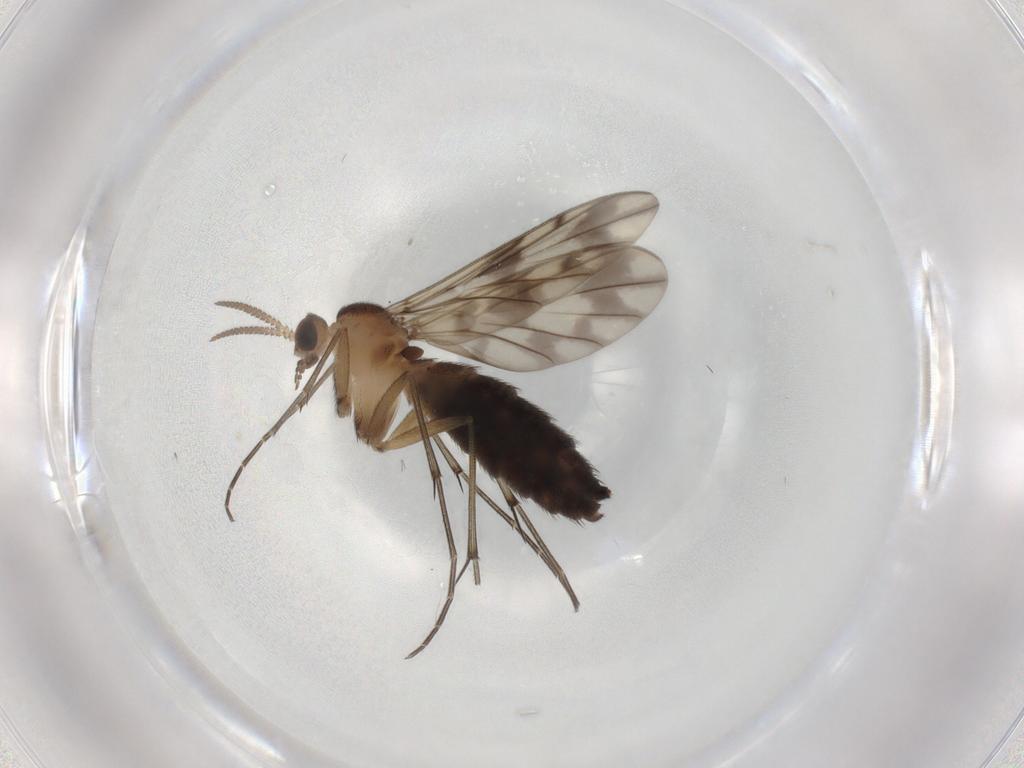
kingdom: Animalia
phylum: Arthropoda
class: Insecta
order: Diptera
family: Keroplatidae
